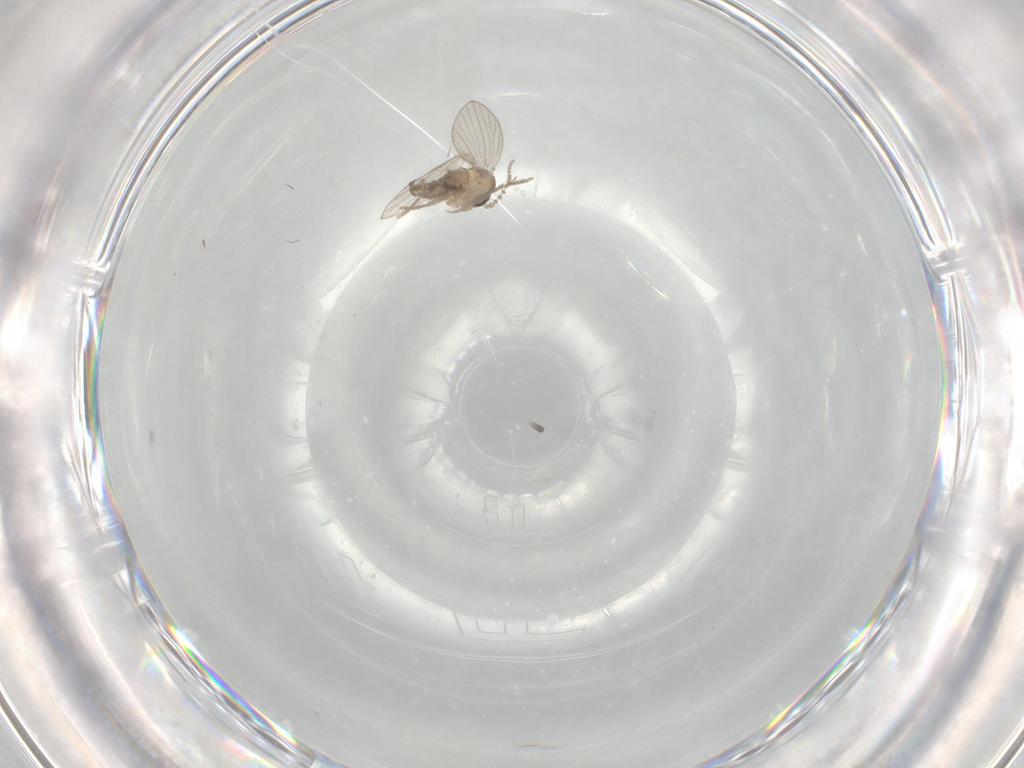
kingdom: Animalia
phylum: Arthropoda
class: Insecta
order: Diptera
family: Psychodidae
